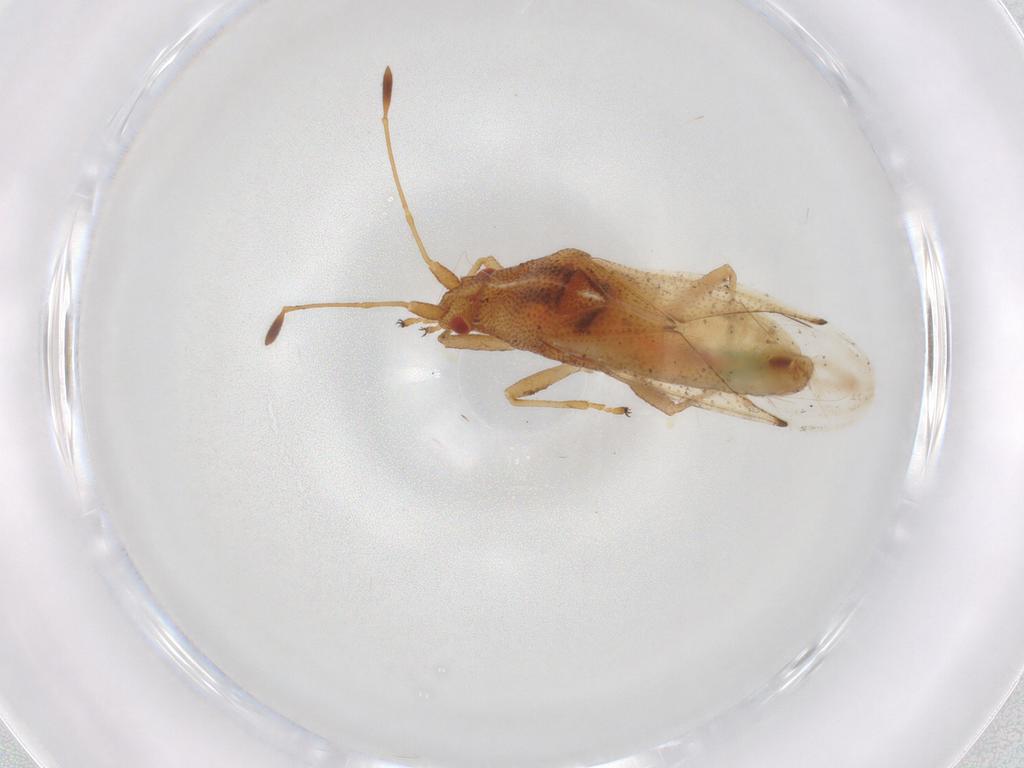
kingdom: Animalia
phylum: Arthropoda
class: Insecta
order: Hemiptera
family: Cymidae
